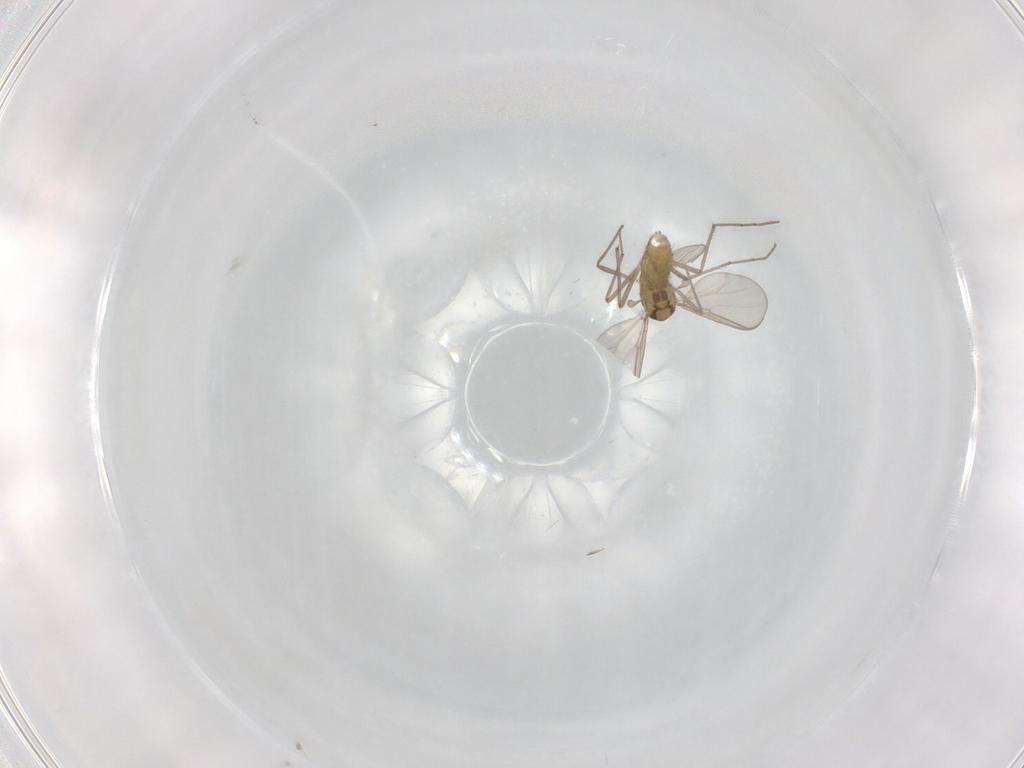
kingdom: Animalia
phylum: Arthropoda
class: Insecta
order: Diptera
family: Chironomidae
